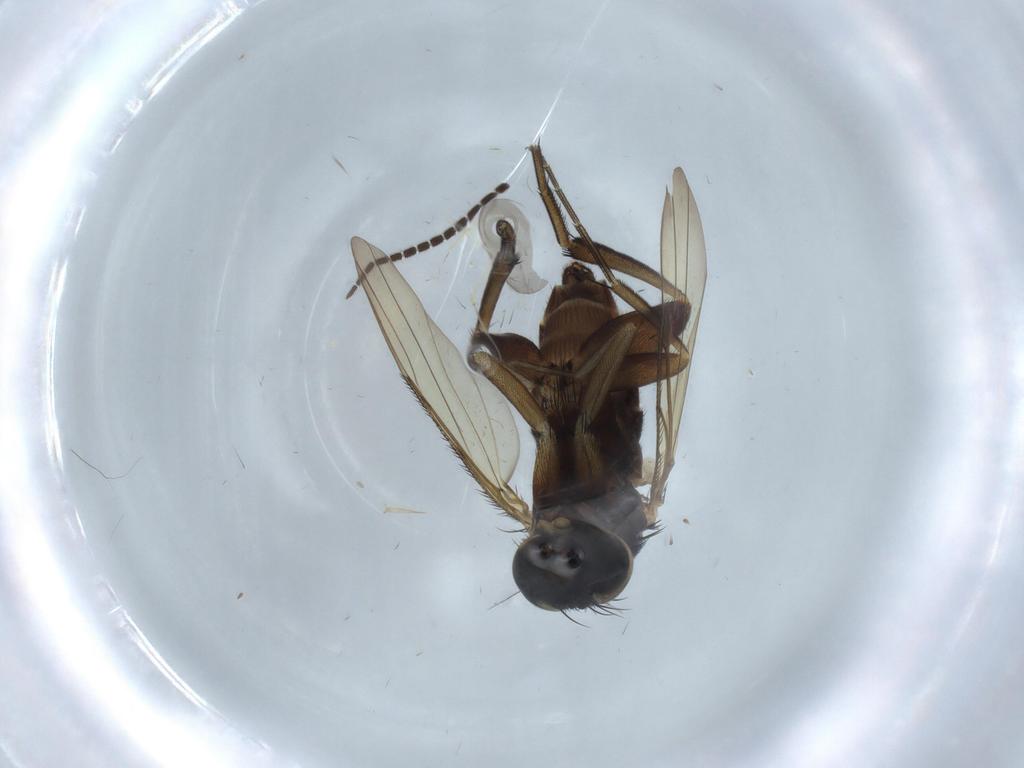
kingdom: Animalia
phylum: Arthropoda
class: Insecta
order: Diptera
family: Phoridae
